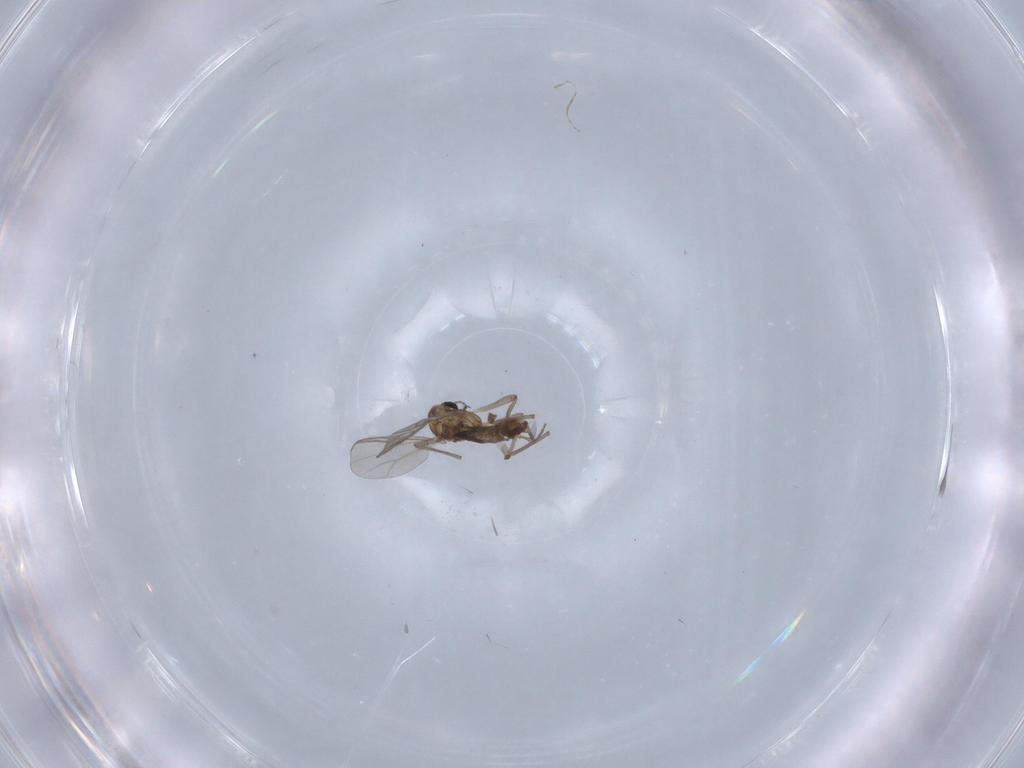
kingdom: Animalia
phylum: Arthropoda
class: Insecta
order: Diptera
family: Chironomidae
